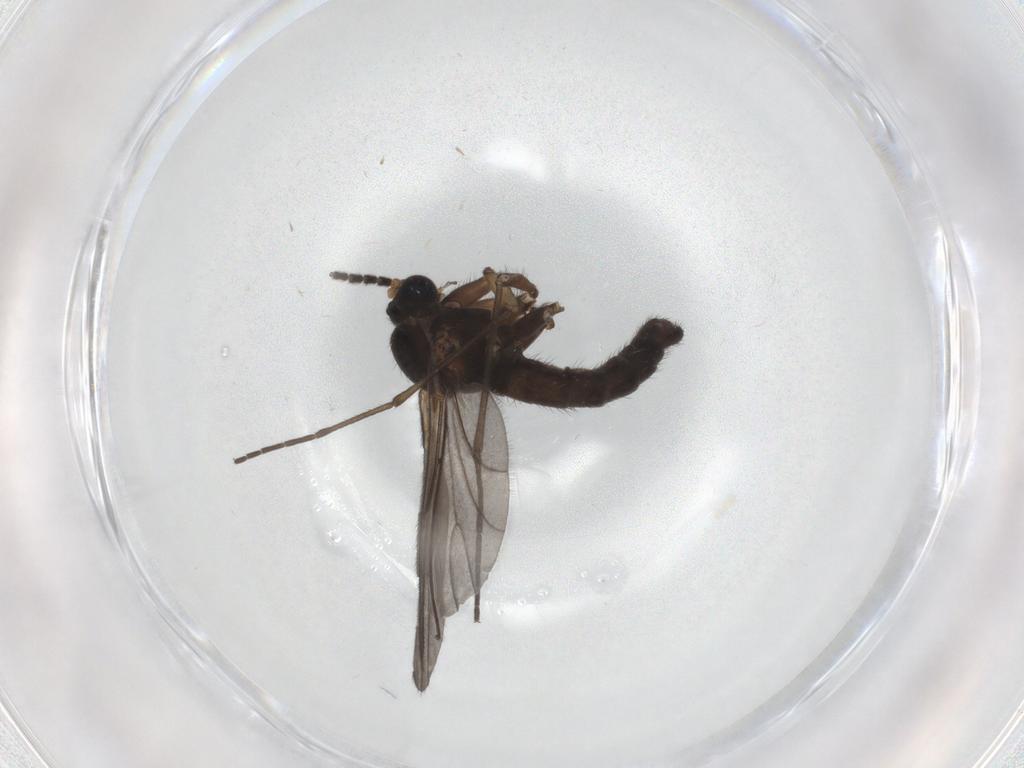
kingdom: Animalia
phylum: Arthropoda
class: Insecta
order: Diptera
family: Sciaridae
